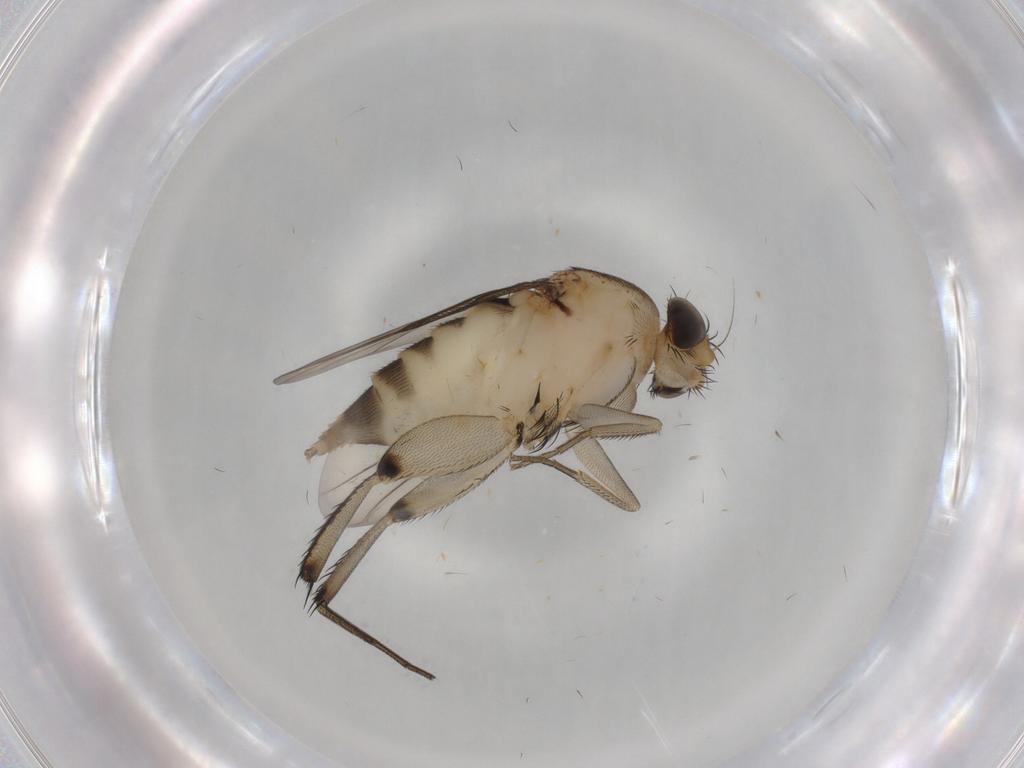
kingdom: Animalia
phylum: Arthropoda
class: Insecta
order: Diptera
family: Phoridae
